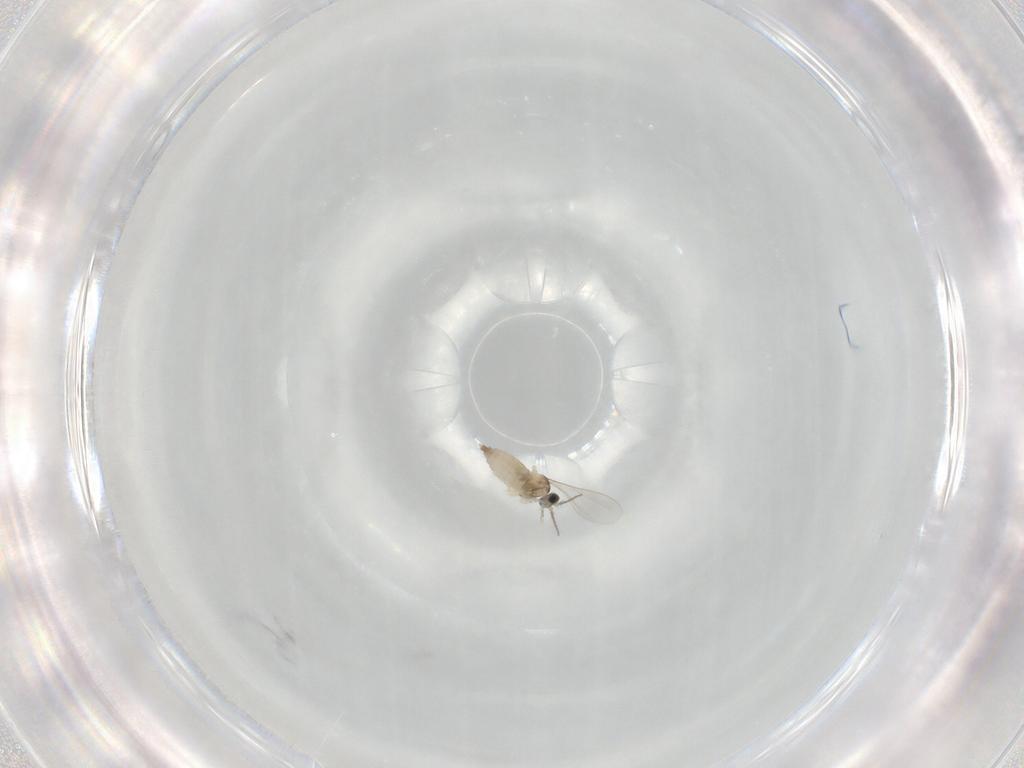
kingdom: Animalia
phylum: Arthropoda
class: Insecta
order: Diptera
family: Cecidomyiidae
